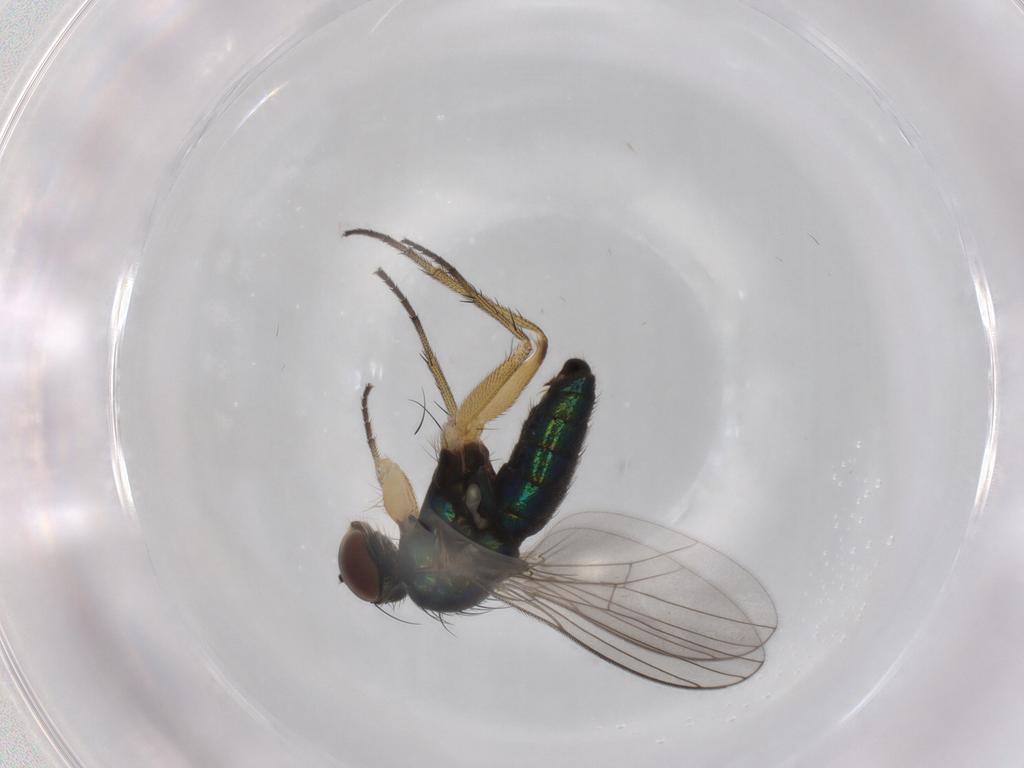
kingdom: Animalia
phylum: Arthropoda
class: Insecta
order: Diptera
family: Dolichopodidae
